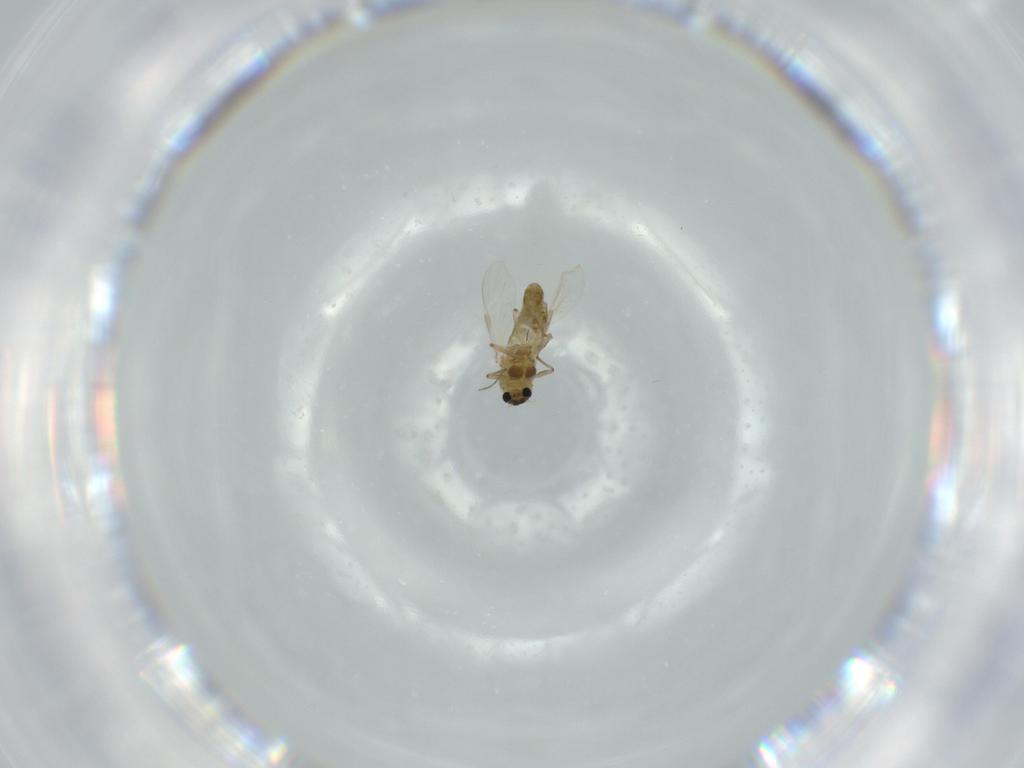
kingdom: Animalia
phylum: Arthropoda
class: Insecta
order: Diptera
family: Chironomidae
